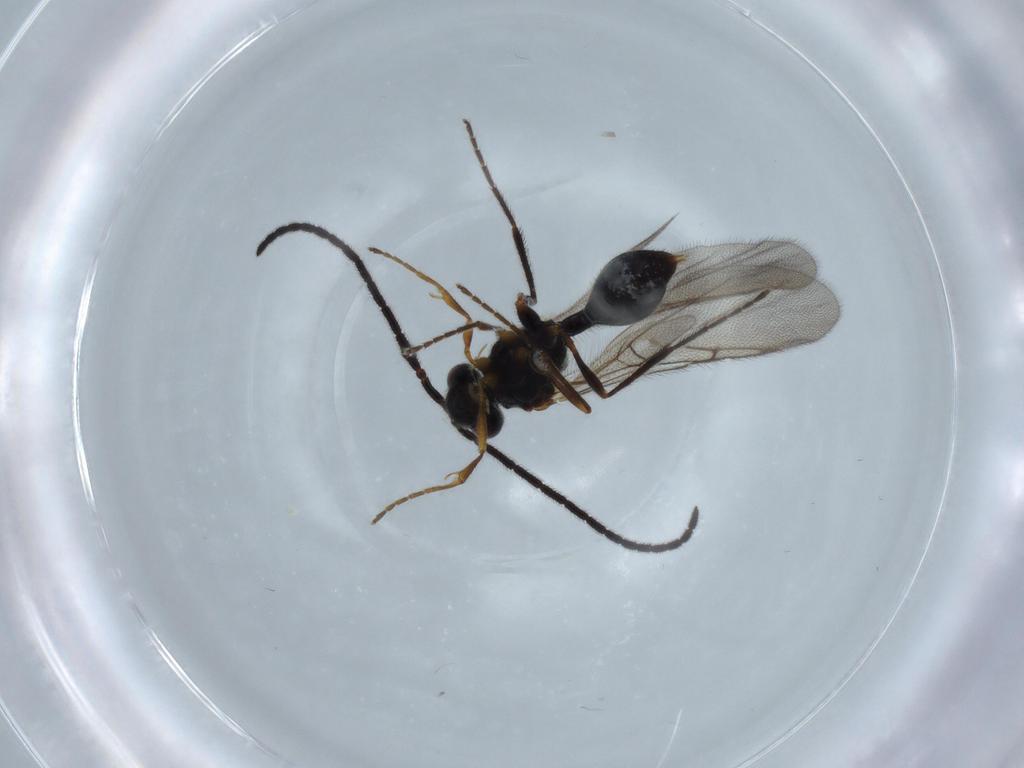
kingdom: Animalia
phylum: Arthropoda
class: Insecta
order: Hymenoptera
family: Diapriidae
